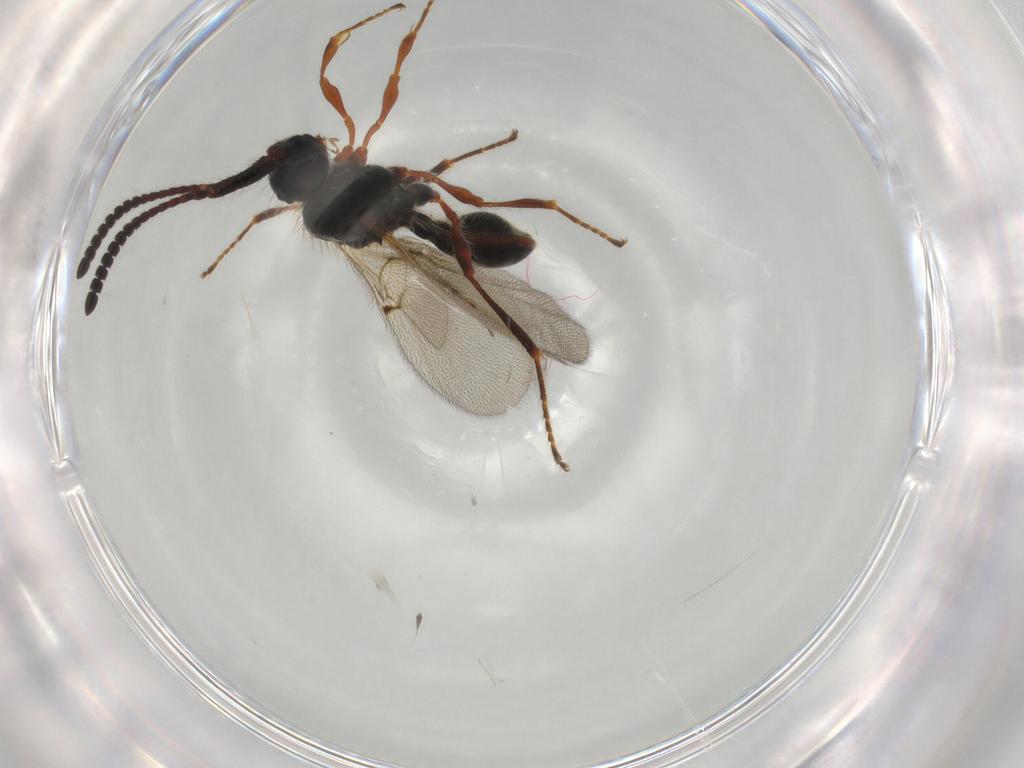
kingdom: Animalia
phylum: Arthropoda
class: Insecta
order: Hymenoptera
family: Diapriidae
